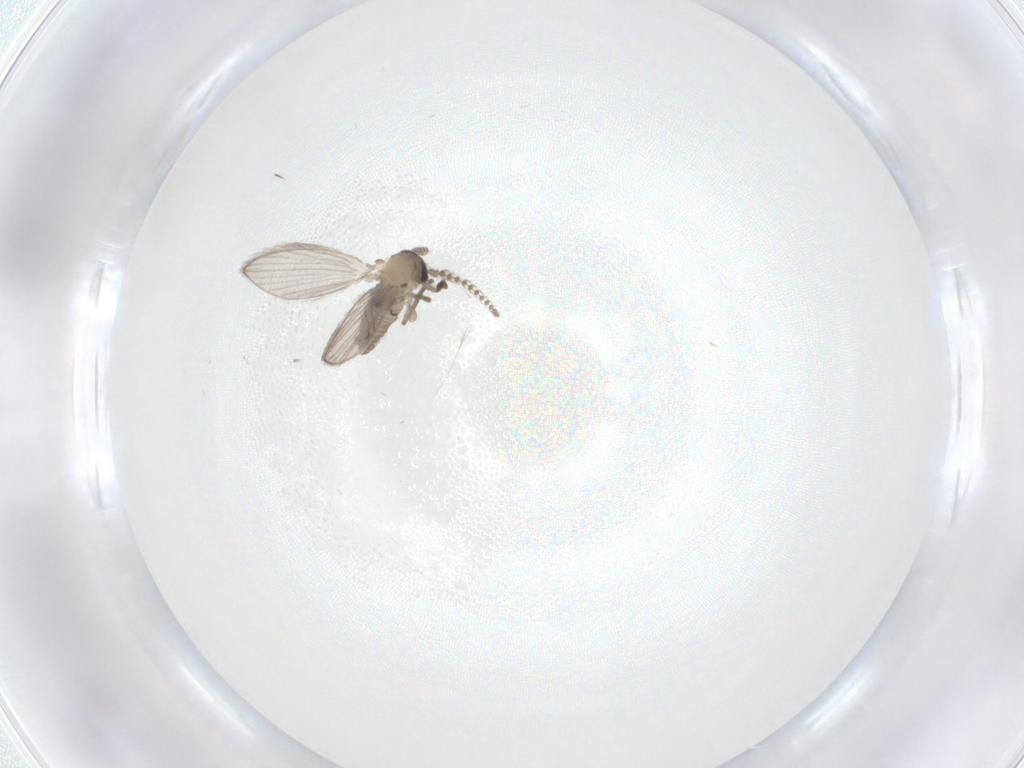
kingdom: Animalia
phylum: Arthropoda
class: Insecta
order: Diptera
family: Psychodidae
